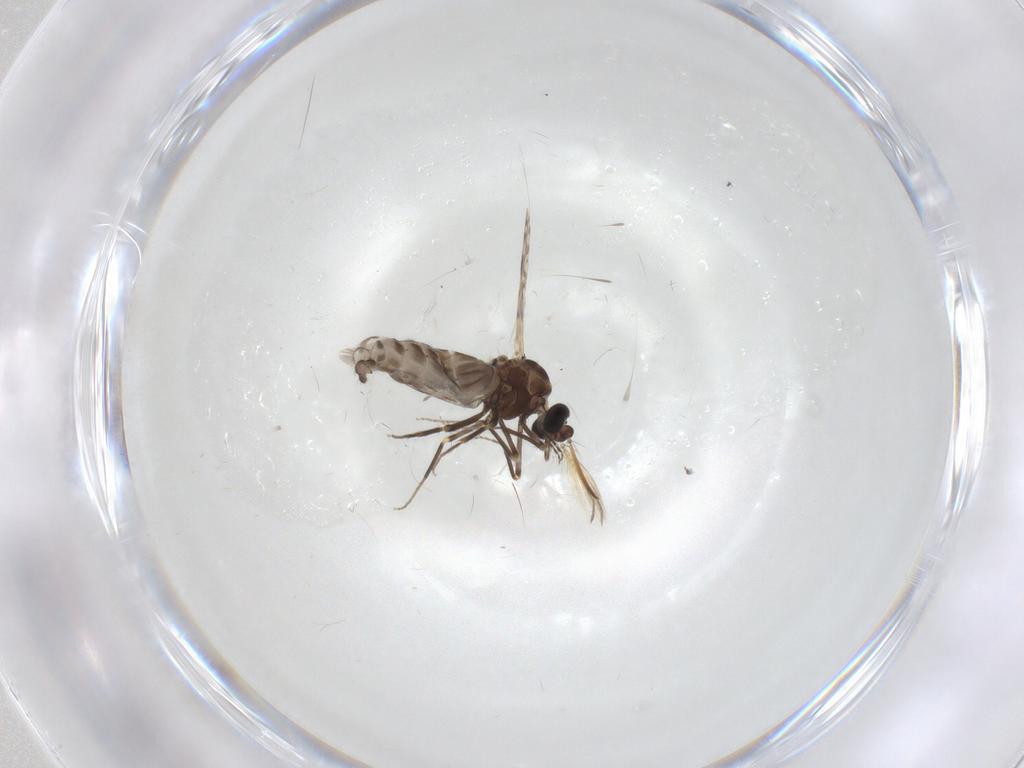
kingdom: Animalia
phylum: Arthropoda
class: Insecta
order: Diptera
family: Ceratopogonidae
